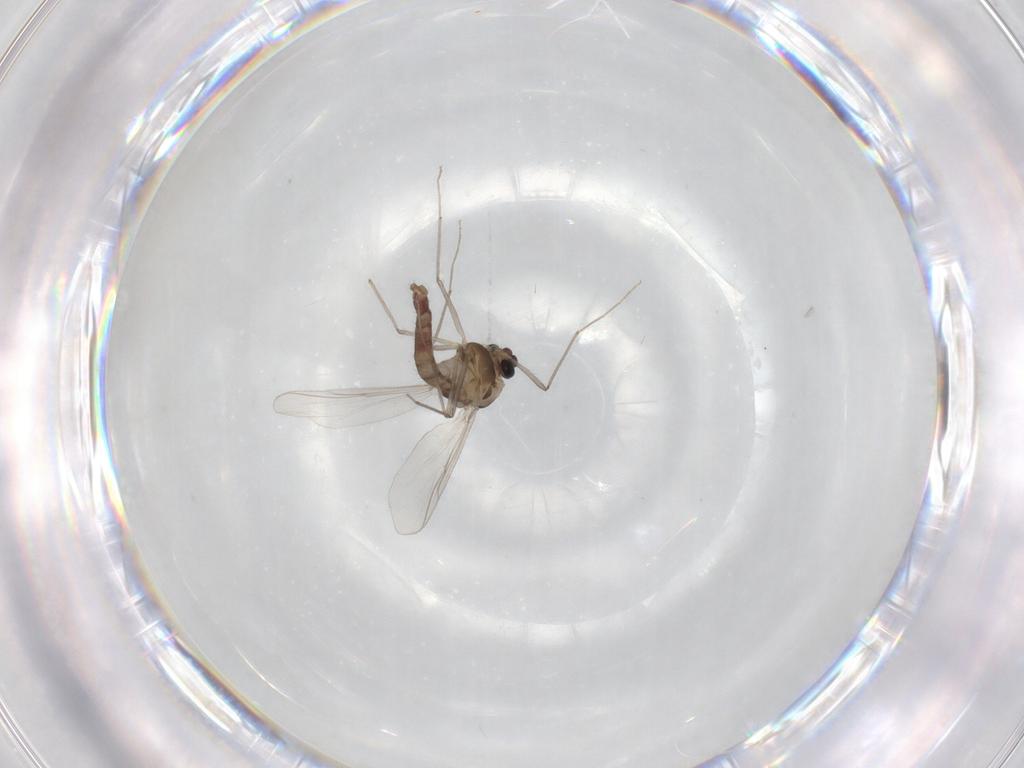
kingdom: Animalia
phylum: Arthropoda
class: Insecta
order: Diptera
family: Chironomidae
